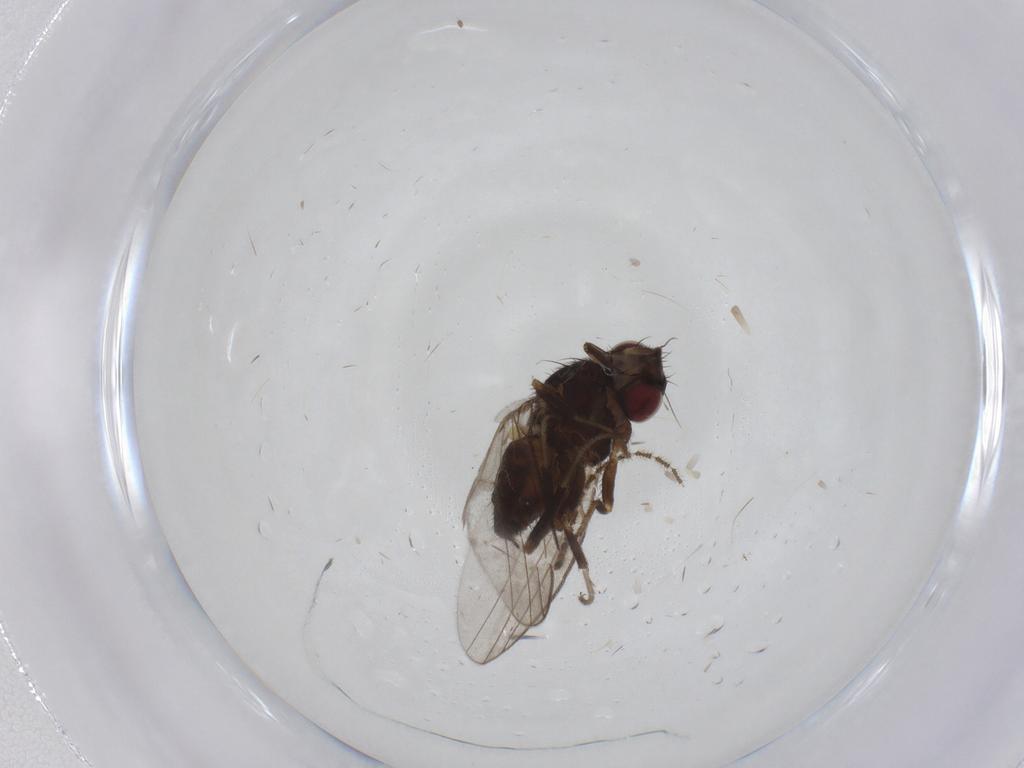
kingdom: Animalia
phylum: Arthropoda
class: Insecta
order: Diptera
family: Milichiidae
